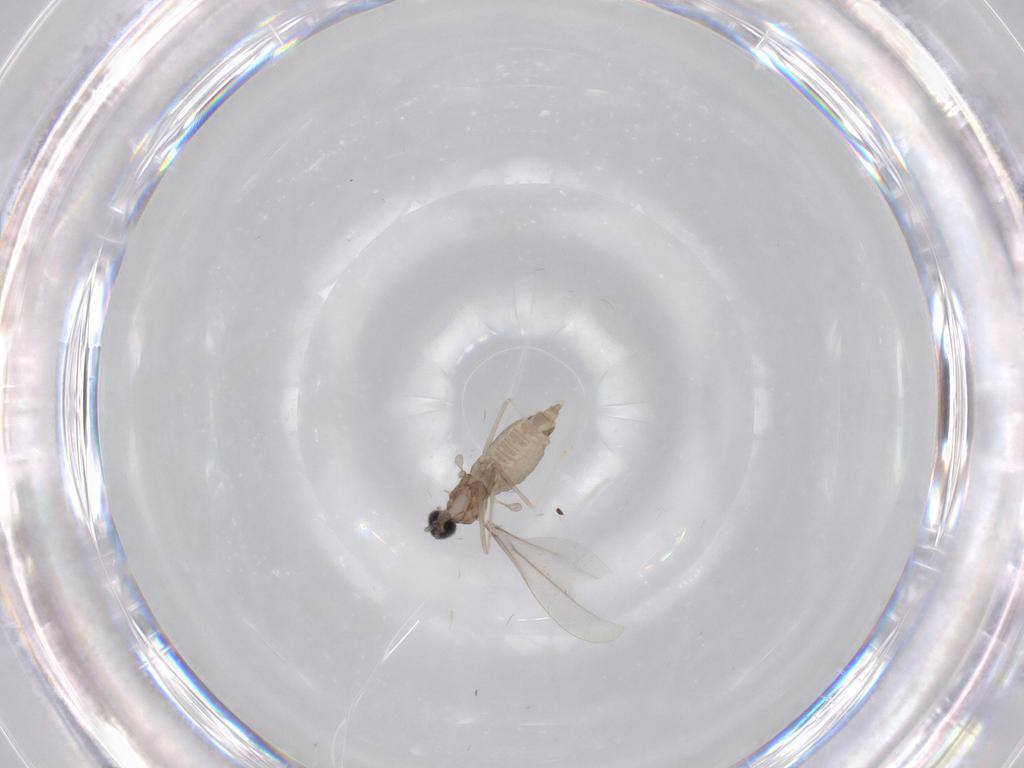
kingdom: Animalia
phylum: Arthropoda
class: Insecta
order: Diptera
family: Cecidomyiidae
